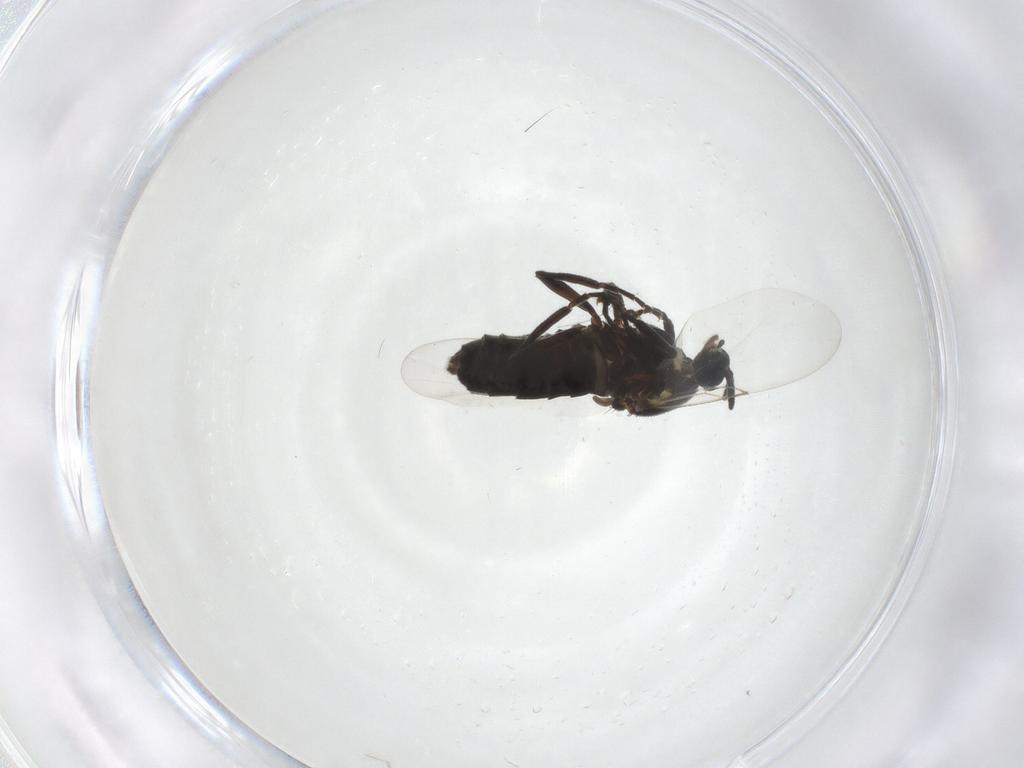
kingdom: Animalia
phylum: Arthropoda
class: Insecta
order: Diptera
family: Scatopsidae
